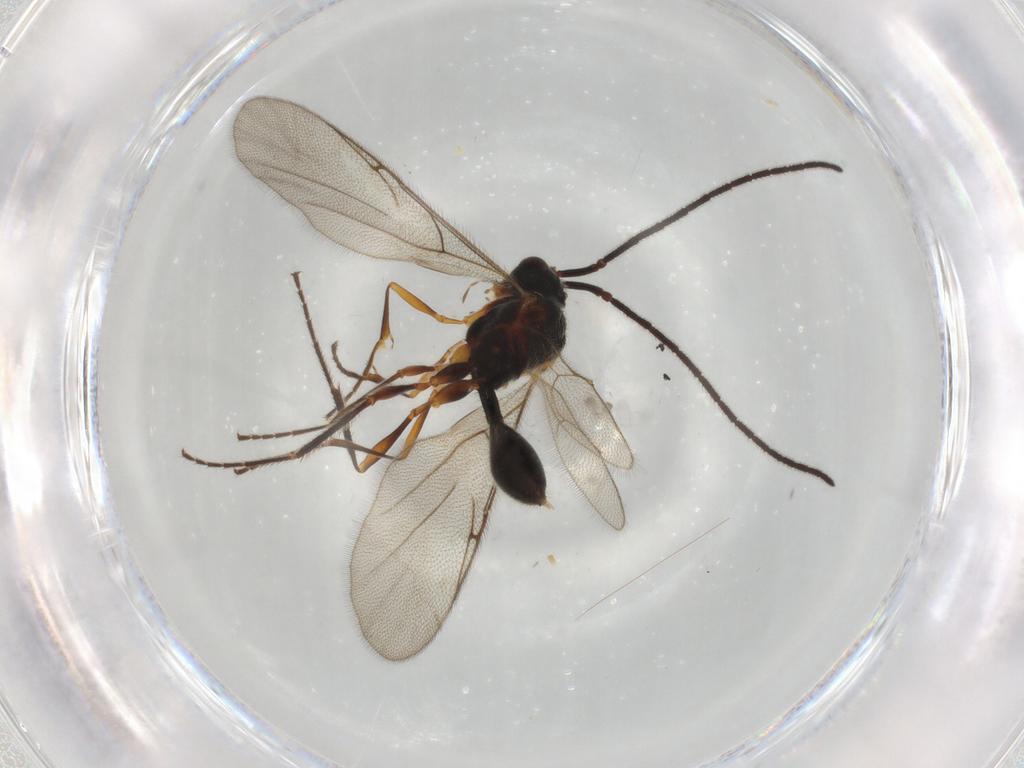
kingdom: Animalia
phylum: Arthropoda
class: Insecta
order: Hymenoptera
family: Diapriidae
